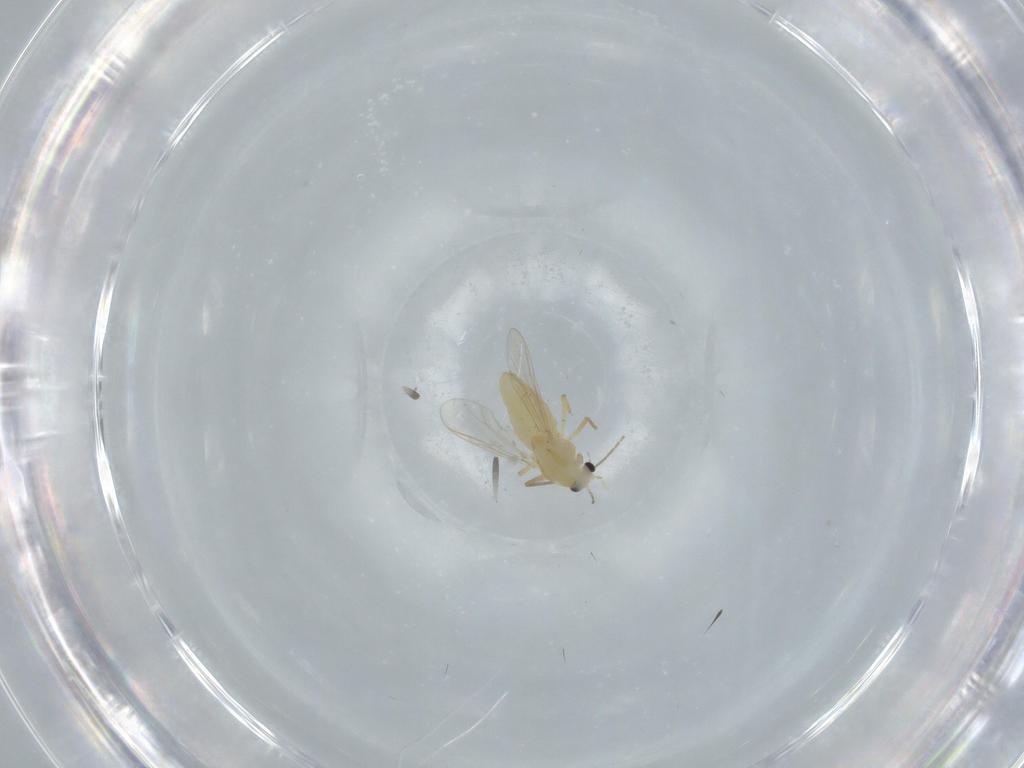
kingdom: Animalia
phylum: Arthropoda
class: Insecta
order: Diptera
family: Chironomidae
